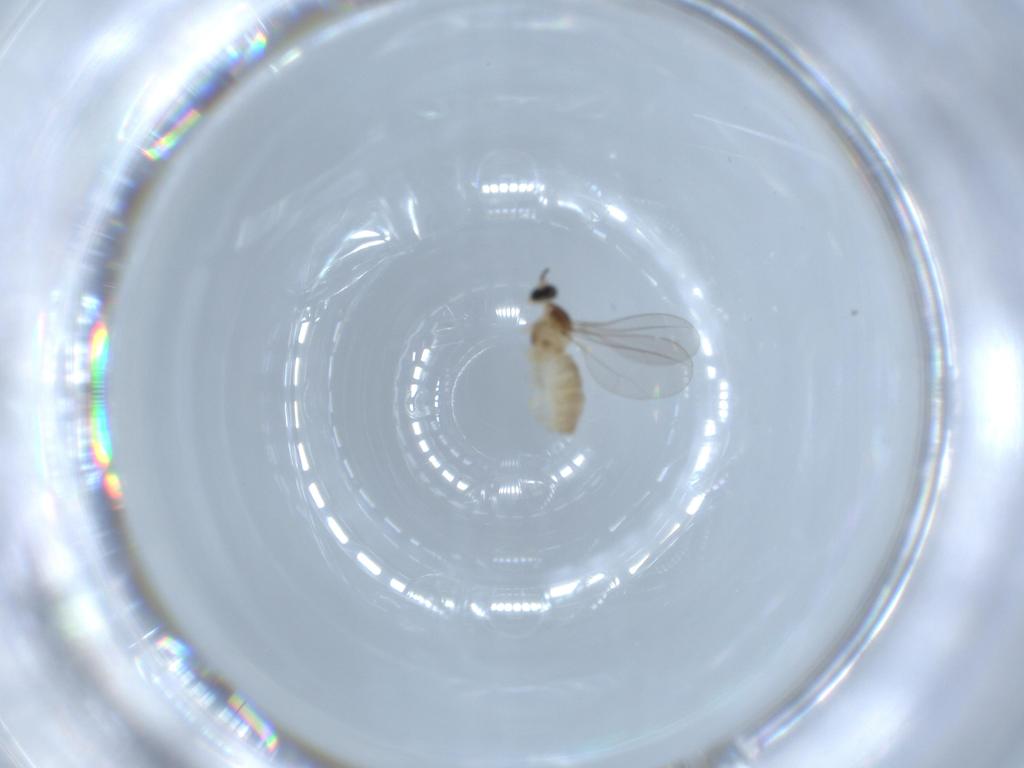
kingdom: Animalia
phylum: Arthropoda
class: Insecta
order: Diptera
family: Cecidomyiidae
